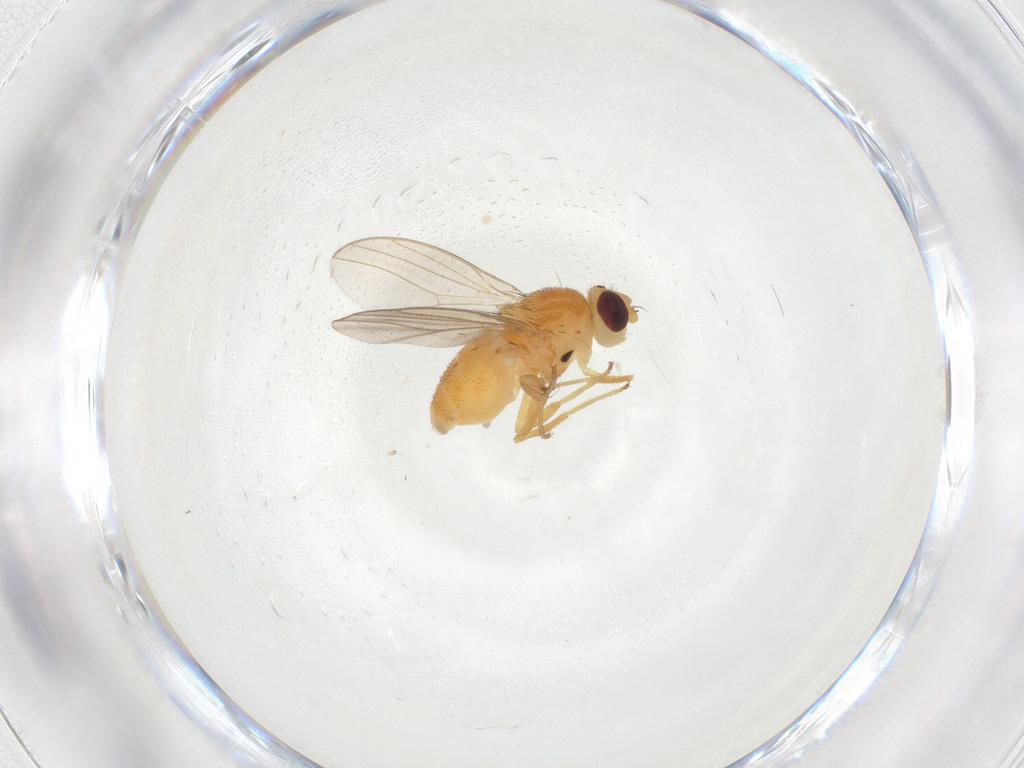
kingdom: Animalia
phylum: Arthropoda
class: Insecta
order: Diptera
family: Chloropidae
